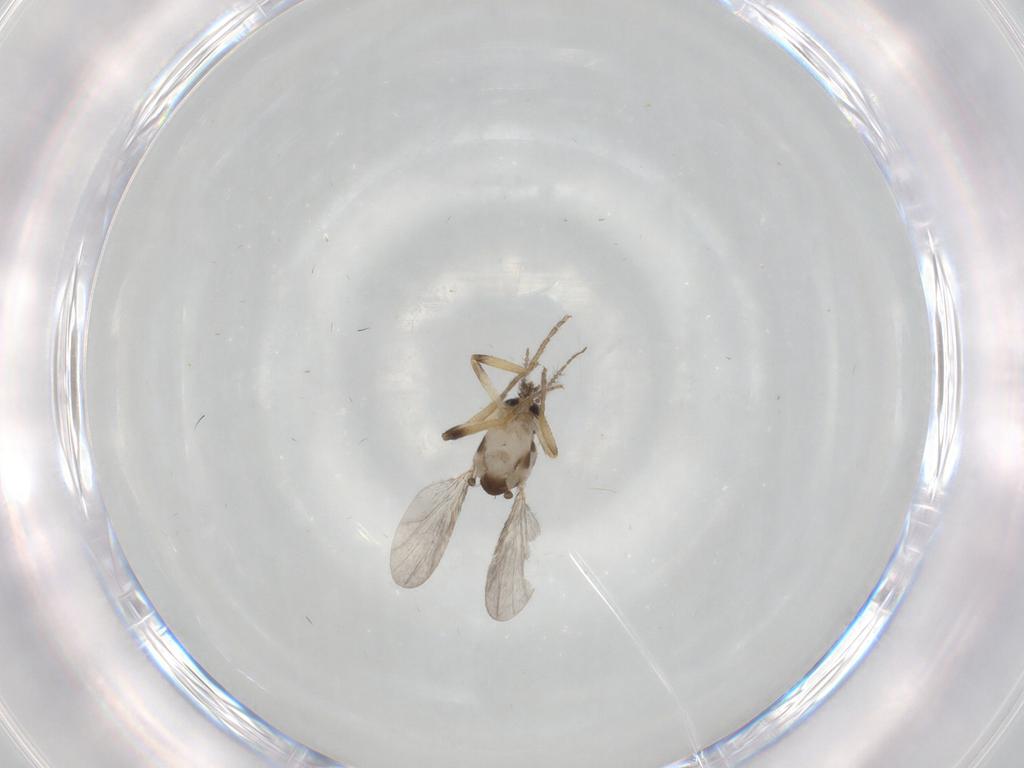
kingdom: Animalia
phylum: Arthropoda
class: Insecta
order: Diptera
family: Ceratopogonidae
